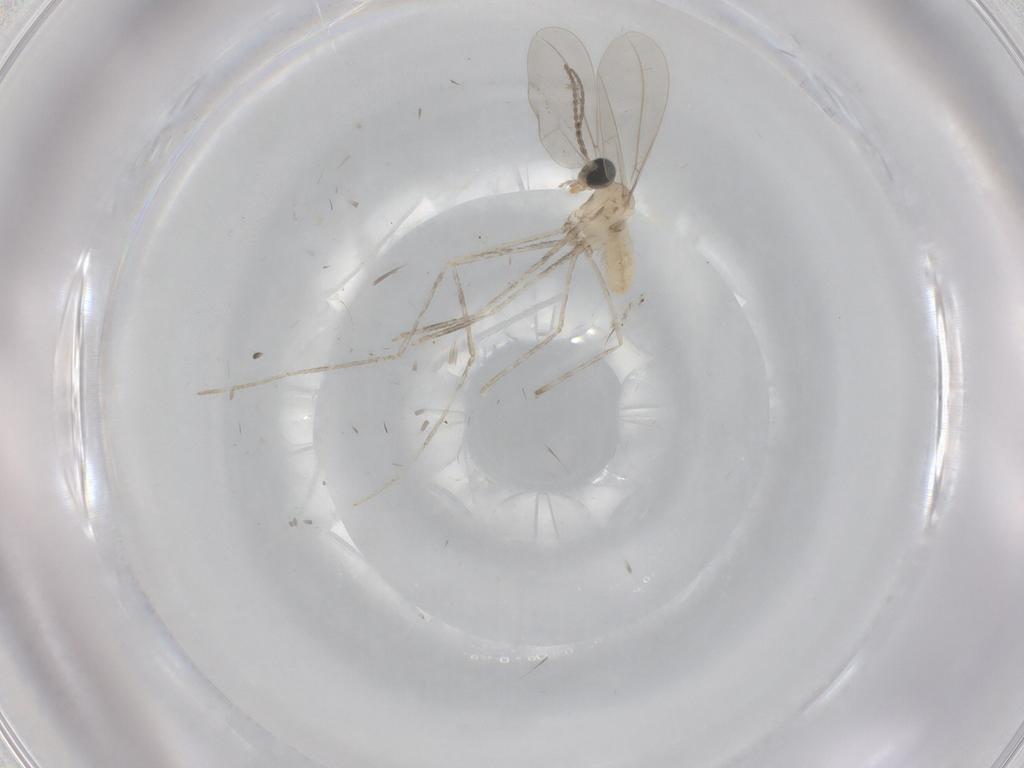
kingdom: Animalia
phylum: Arthropoda
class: Insecta
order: Diptera
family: Cecidomyiidae
